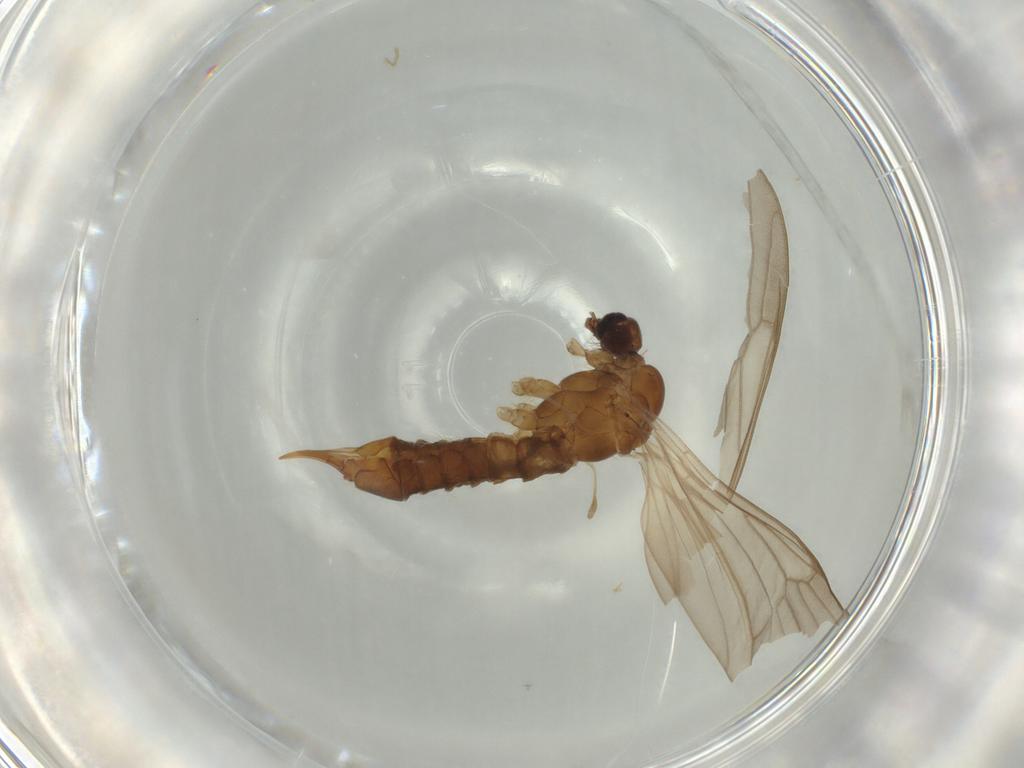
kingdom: Animalia
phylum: Arthropoda
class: Insecta
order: Diptera
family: Limoniidae
